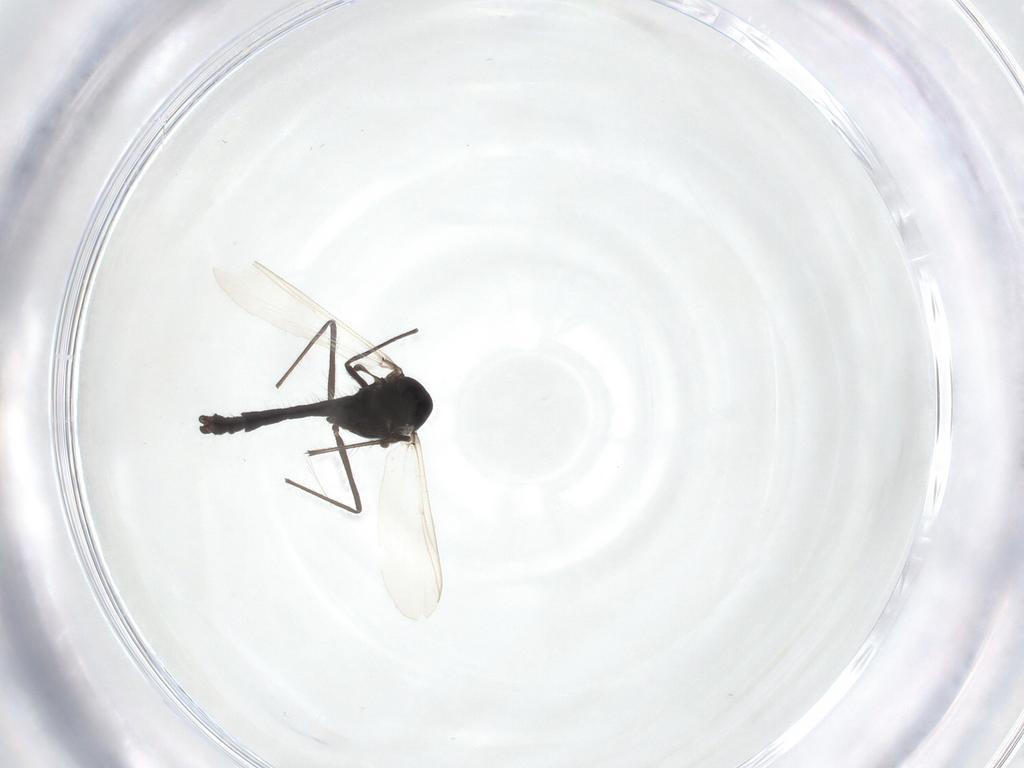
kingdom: Animalia
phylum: Arthropoda
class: Insecta
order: Diptera
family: Chironomidae
